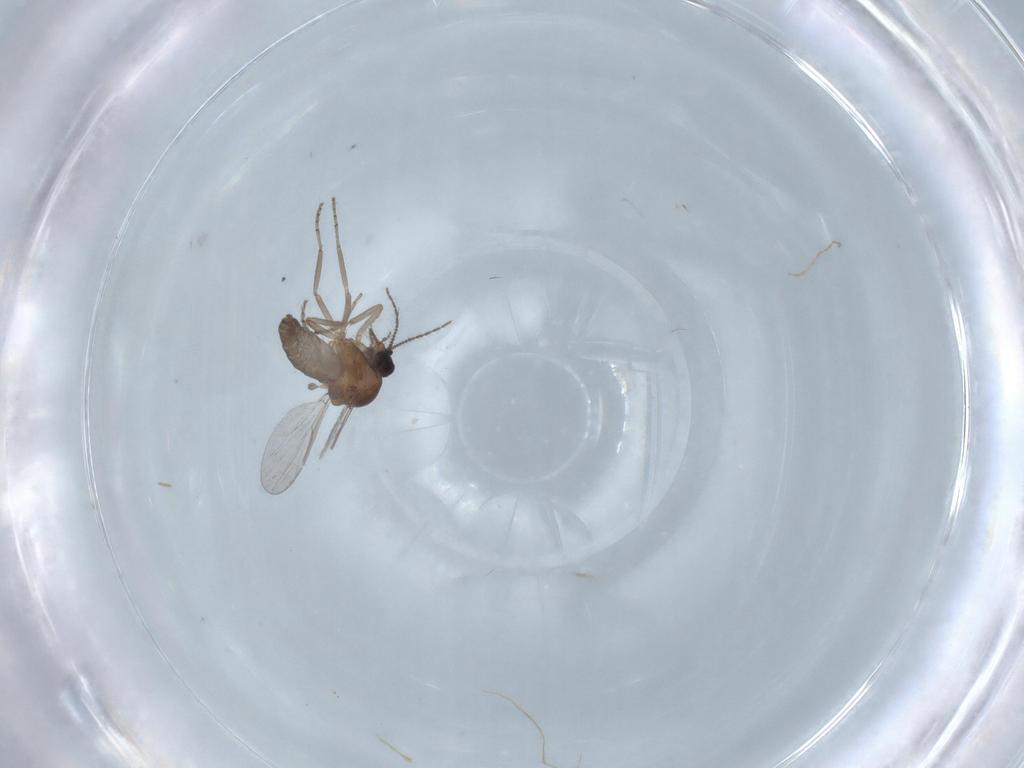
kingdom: Animalia
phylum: Arthropoda
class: Insecta
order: Diptera
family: Ceratopogonidae
